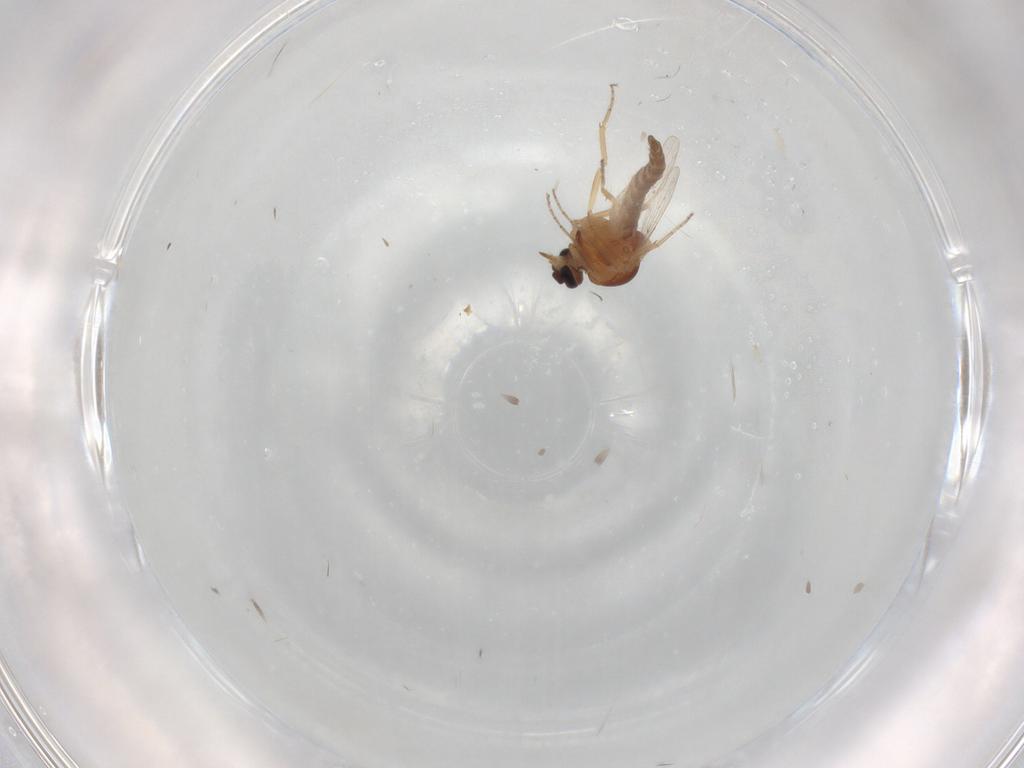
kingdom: Animalia
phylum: Arthropoda
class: Insecta
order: Diptera
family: Ceratopogonidae
